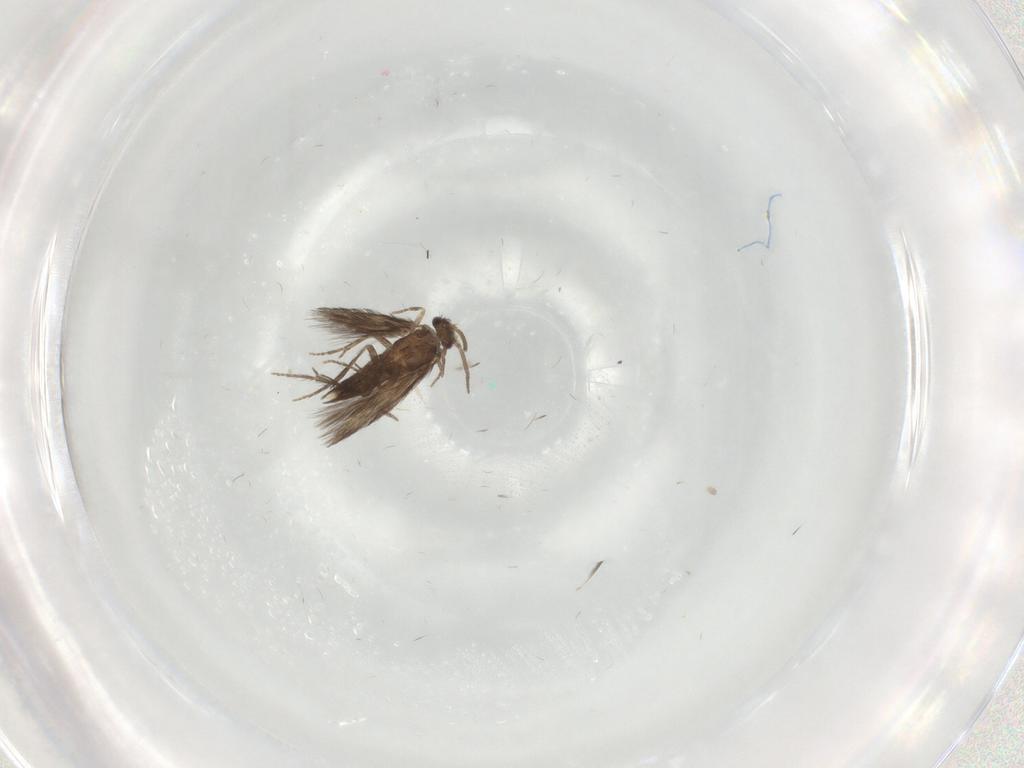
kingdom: Animalia
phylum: Arthropoda
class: Insecta
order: Trichoptera
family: Hydroptilidae
